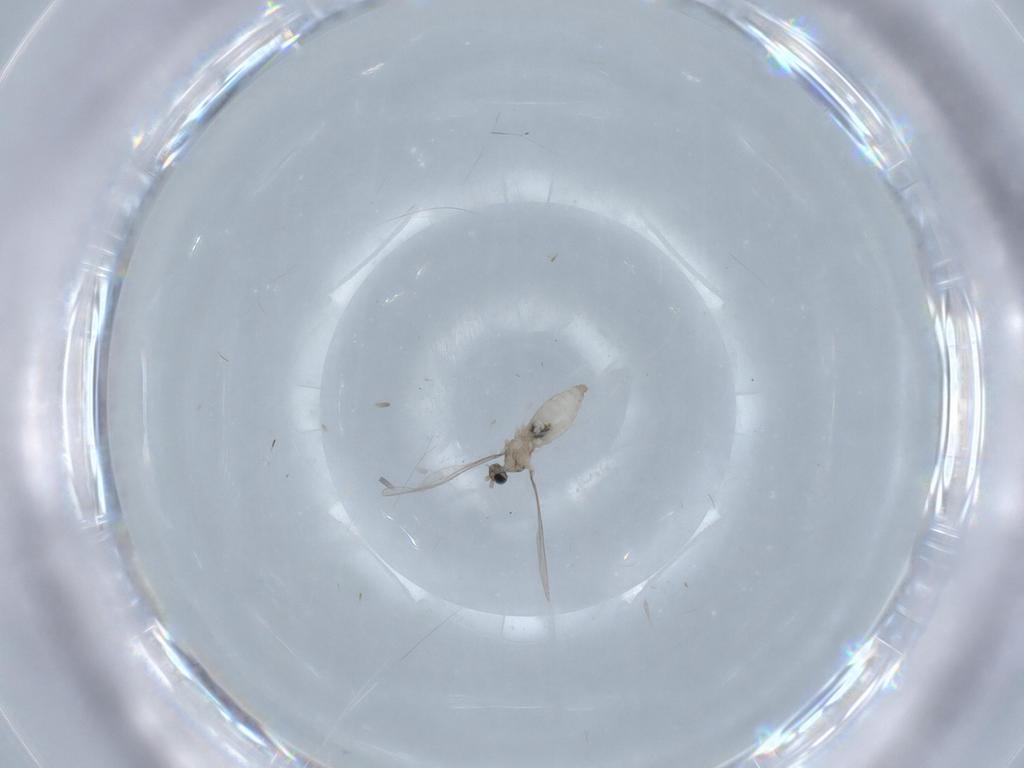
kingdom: Animalia
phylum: Arthropoda
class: Insecta
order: Diptera
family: Cecidomyiidae
